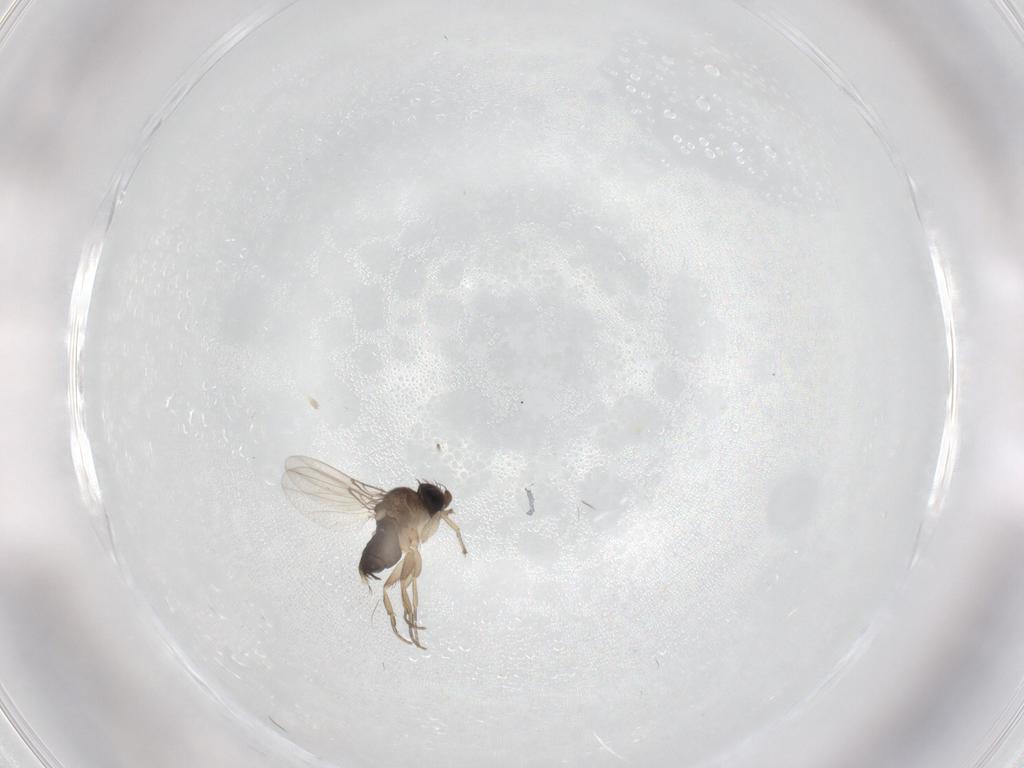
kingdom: Animalia
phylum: Arthropoda
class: Insecta
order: Diptera
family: Phoridae
